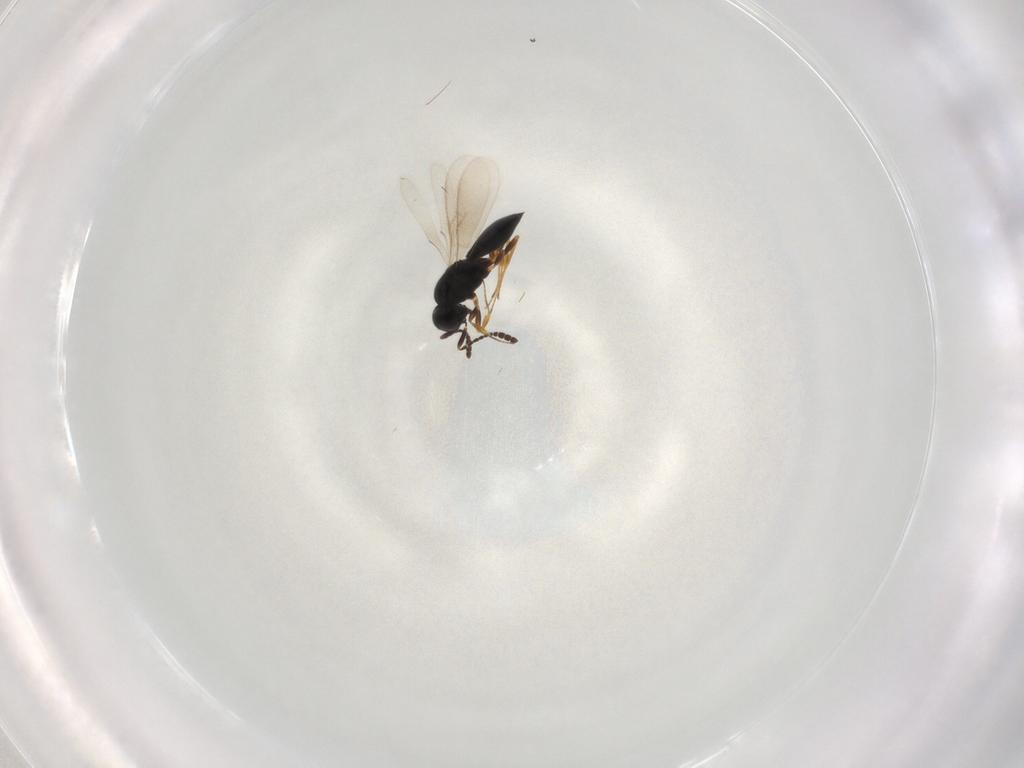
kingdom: Animalia
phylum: Arthropoda
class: Insecta
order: Hymenoptera
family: Scelionidae
